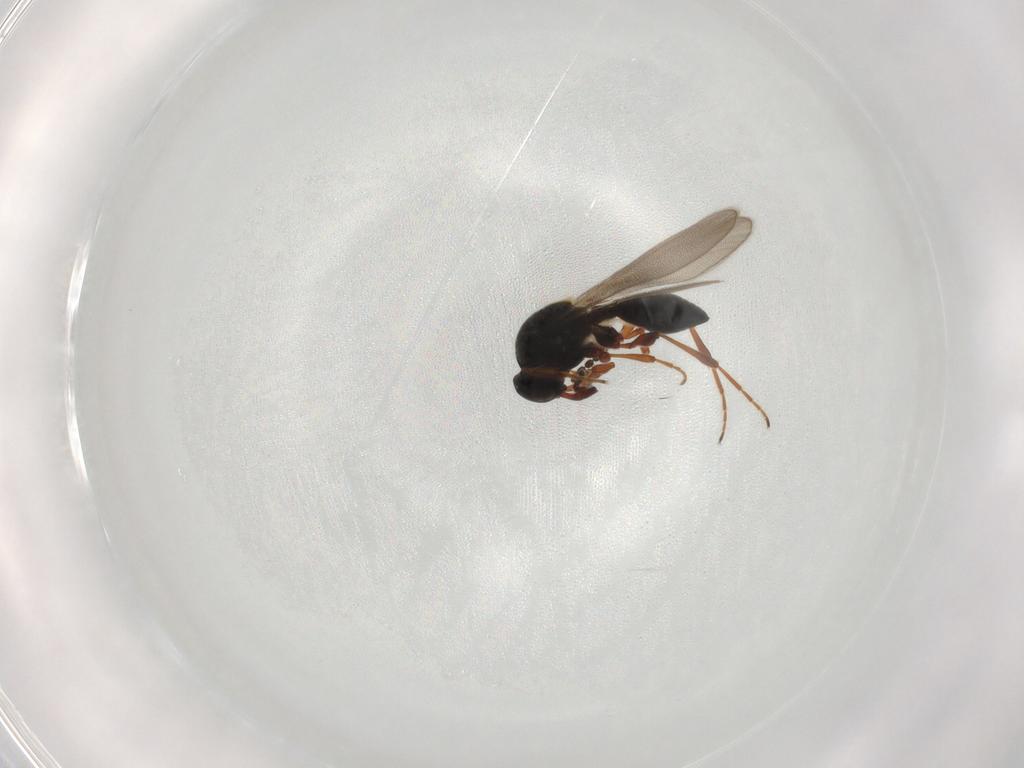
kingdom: Animalia
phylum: Arthropoda
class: Insecta
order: Hymenoptera
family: Platygastridae
